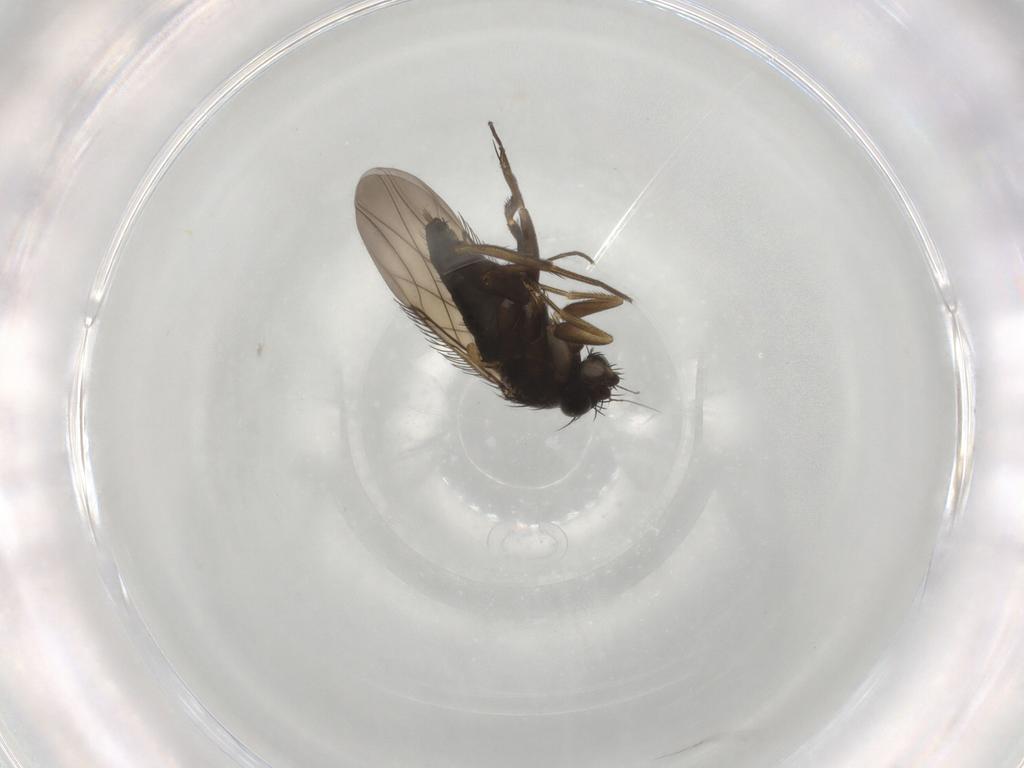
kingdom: Animalia
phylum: Arthropoda
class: Insecta
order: Diptera
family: Phoridae
